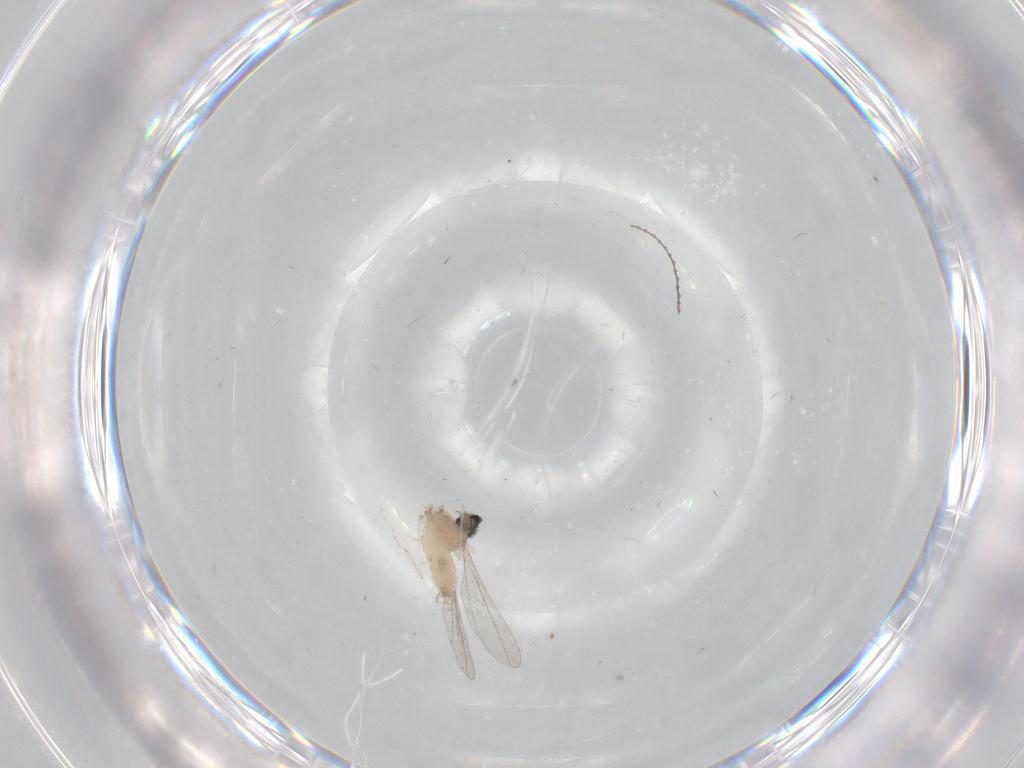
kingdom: Animalia
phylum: Arthropoda
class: Insecta
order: Diptera
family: Cecidomyiidae
